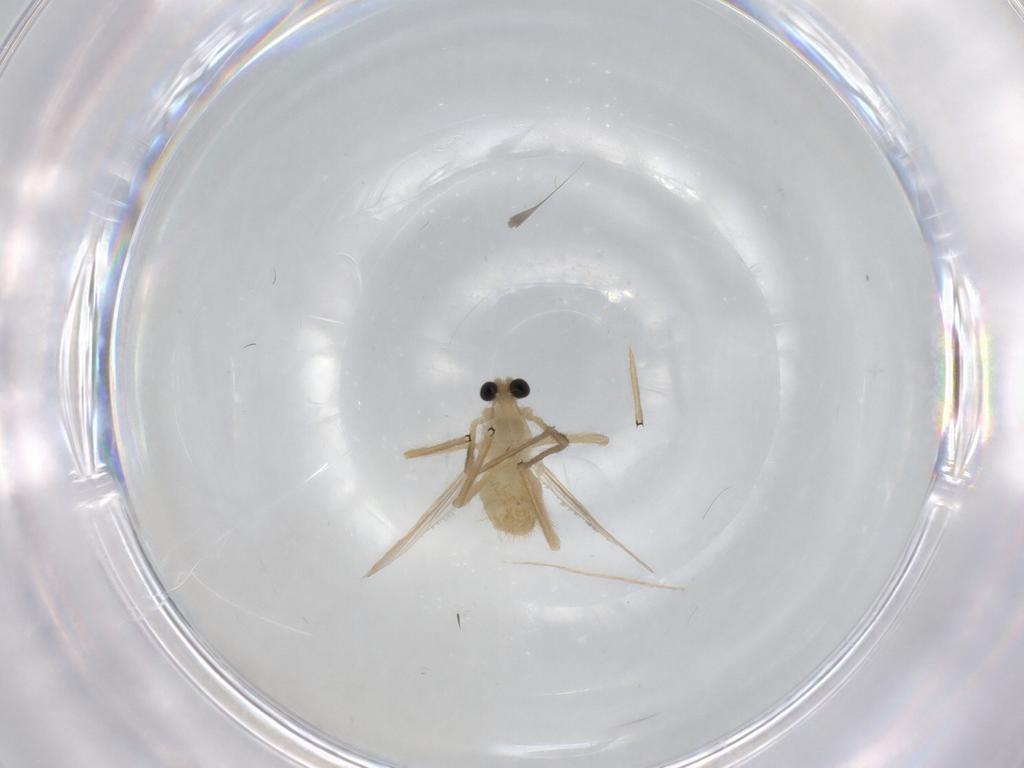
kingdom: Animalia
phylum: Arthropoda
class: Insecta
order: Diptera
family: Chironomidae
